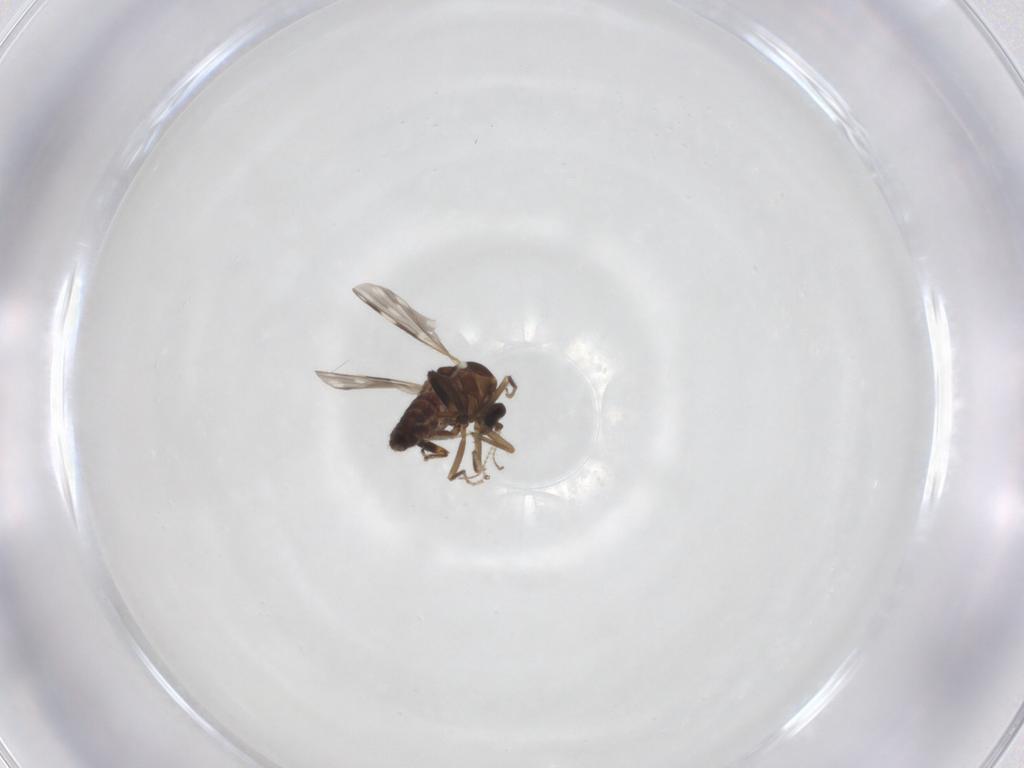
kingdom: Animalia
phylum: Arthropoda
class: Insecta
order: Diptera
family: Ceratopogonidae
